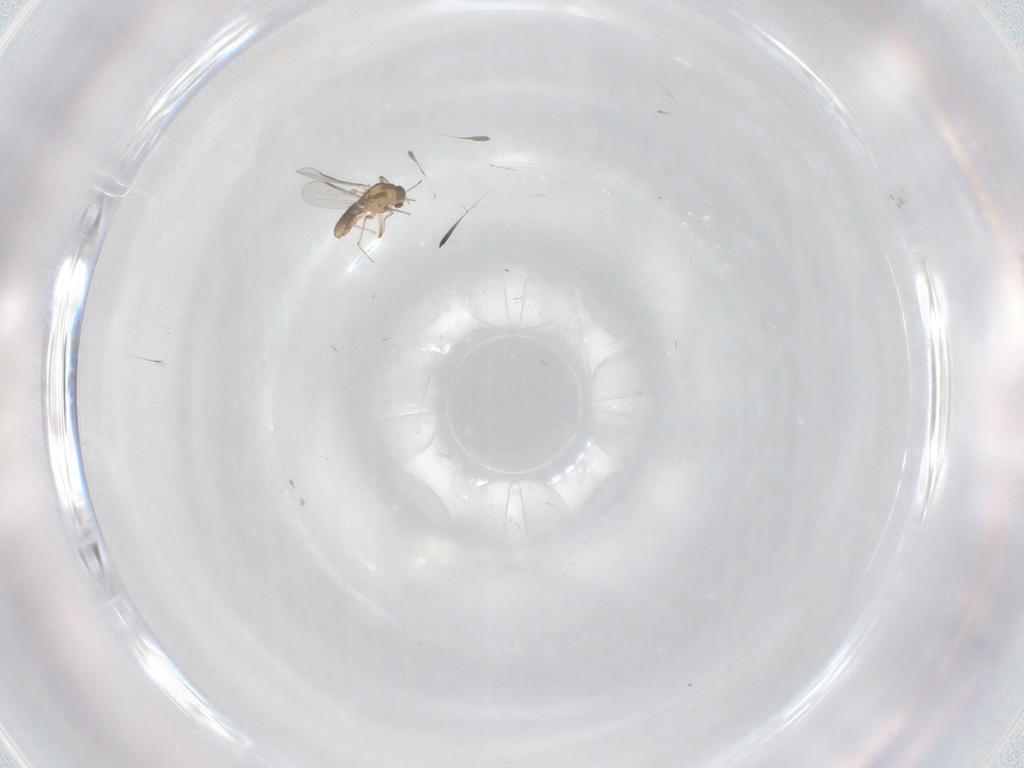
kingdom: Animalia
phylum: Arthropoda
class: Insecta
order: Diptera
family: Chironomidae
